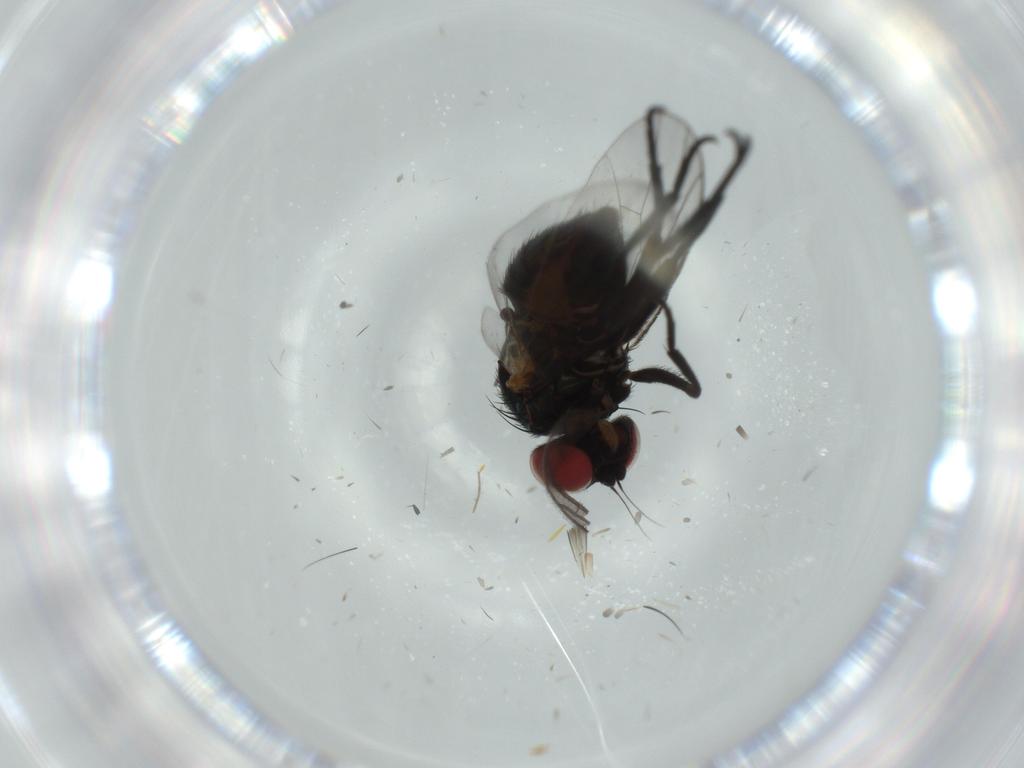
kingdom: Animalia
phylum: Arthropoda
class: Insecta
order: Diptera
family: Agromyzidae
